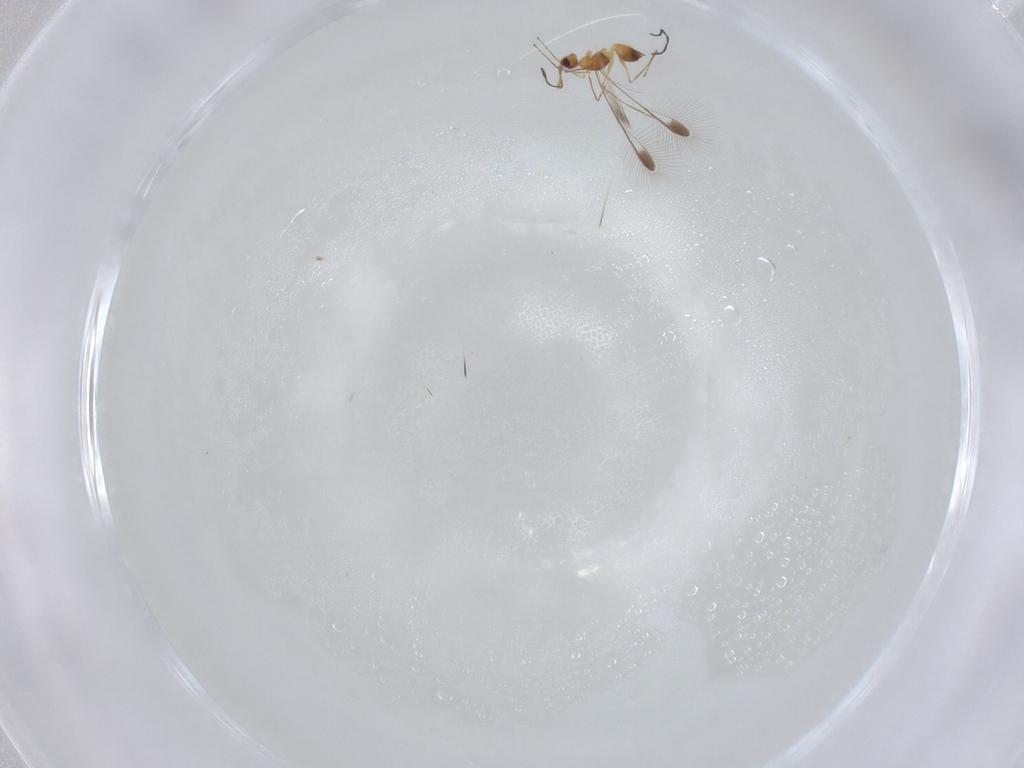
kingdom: Animalia
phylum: Arthropoda
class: Insecta
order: Hymenoptera
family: Mymaridae
